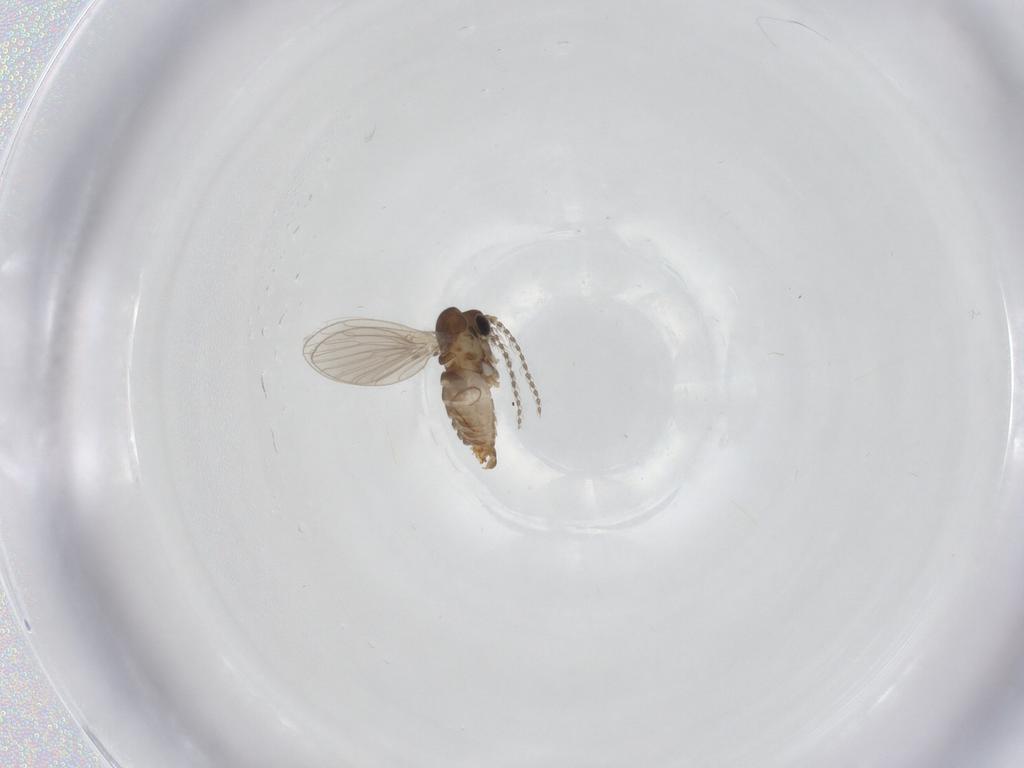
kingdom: Animalia
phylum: Arthropoda
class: Insecta
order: Diptera
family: Psychodidae
